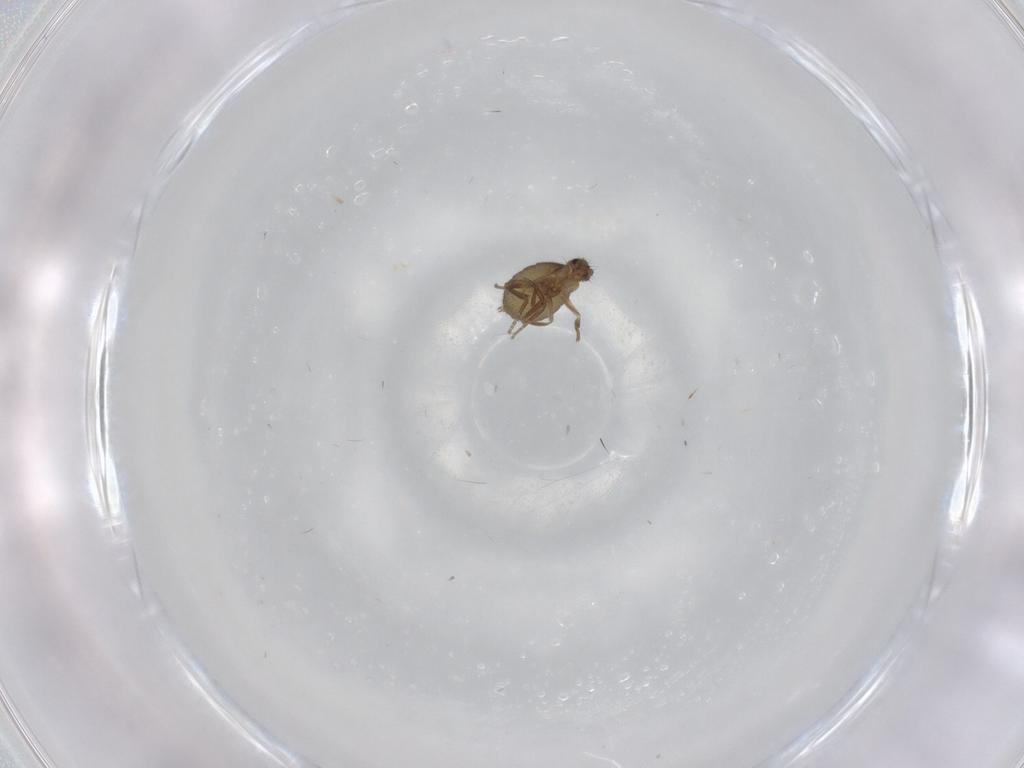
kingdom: Animalia
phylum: Arthropoda
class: Insecta
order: Diptera
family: Phoridae
